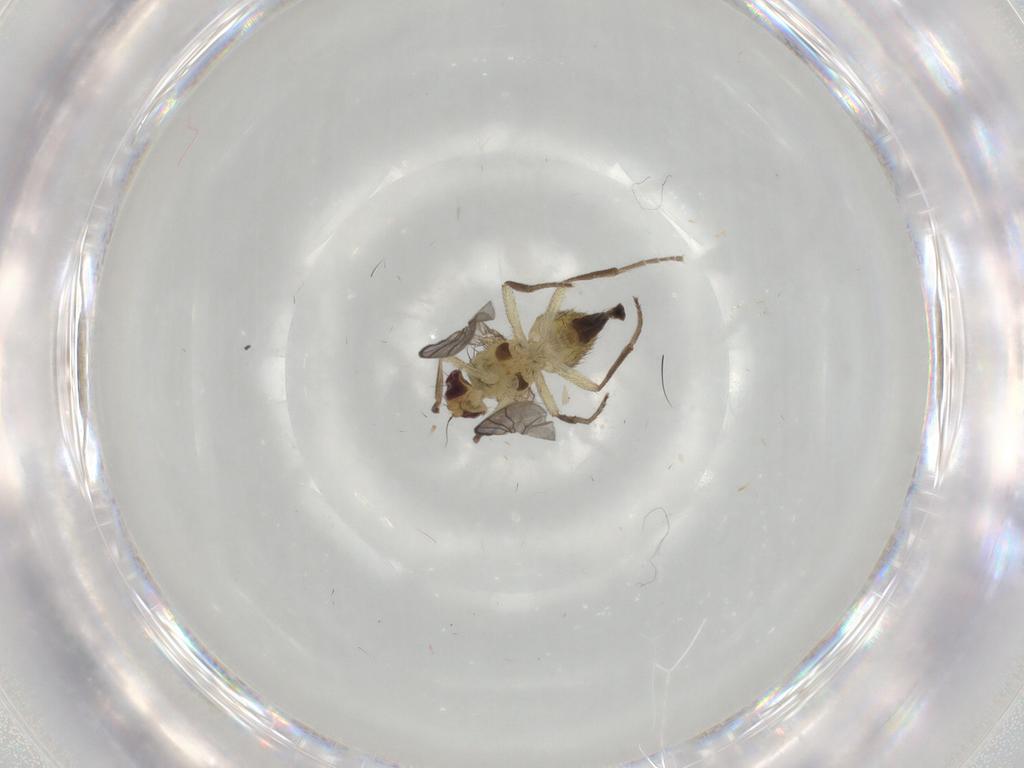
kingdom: Animalia
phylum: Arthropoda
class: Insecta
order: Diptera
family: Agromyzidae
